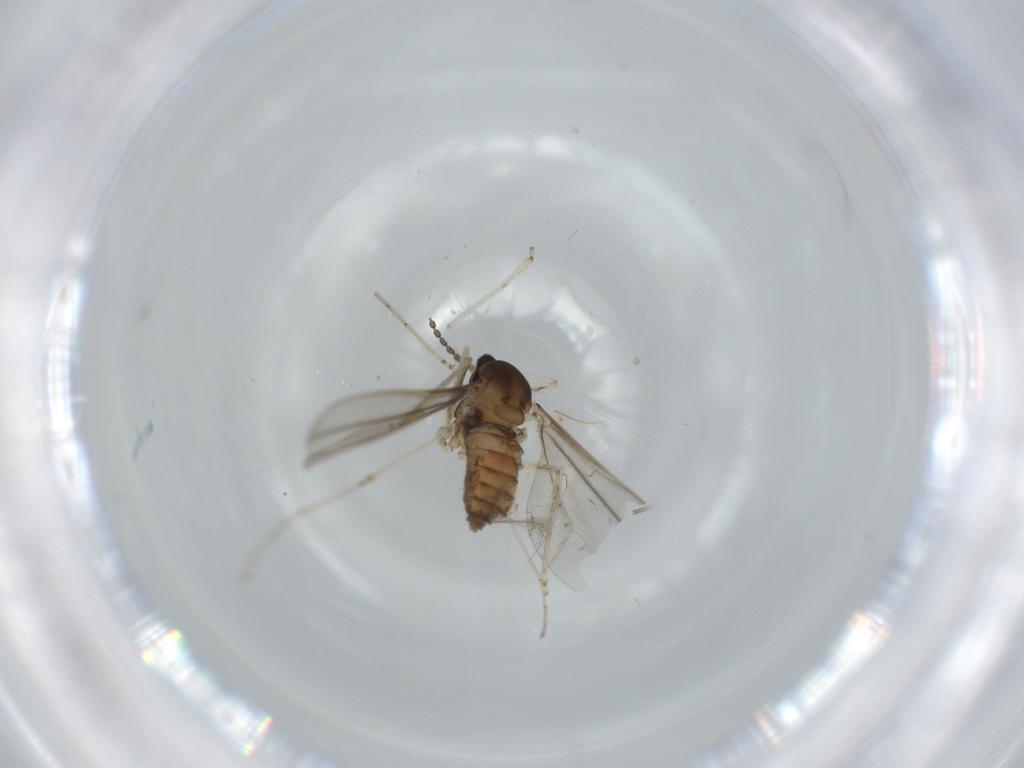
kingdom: Animalia
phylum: Arthropoda
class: Insecta
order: Diptera
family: Cecidomyiidae
